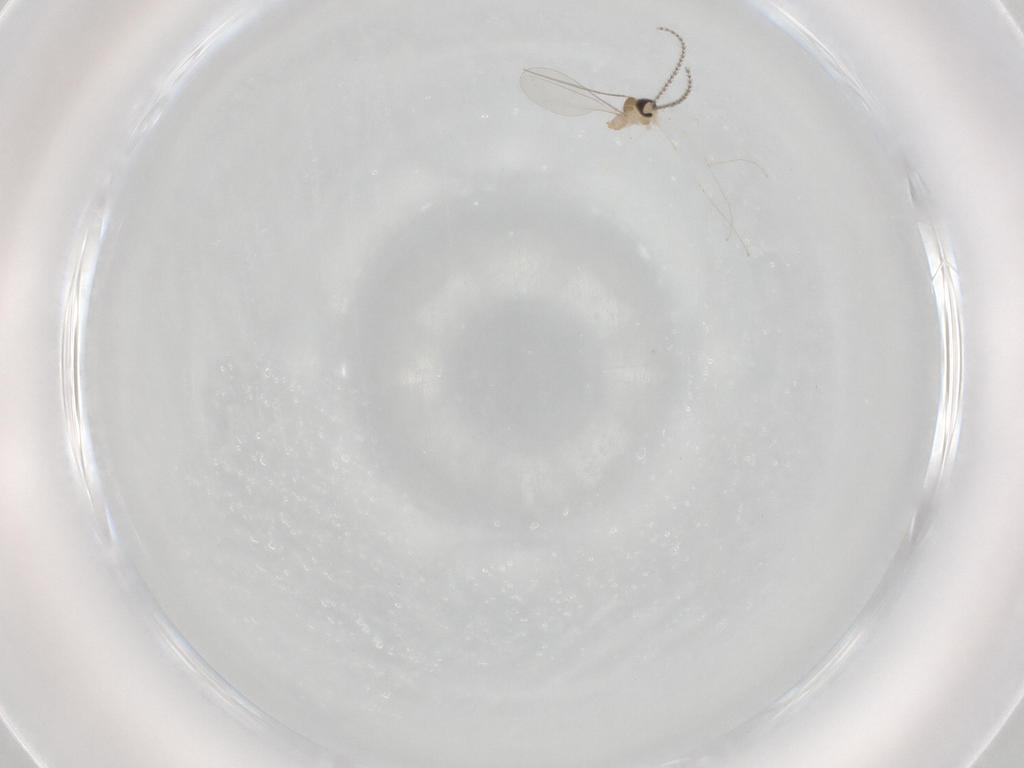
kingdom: Animalia
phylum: Arthropoda
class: Insecta
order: Diptera
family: Cecidomyiidae
